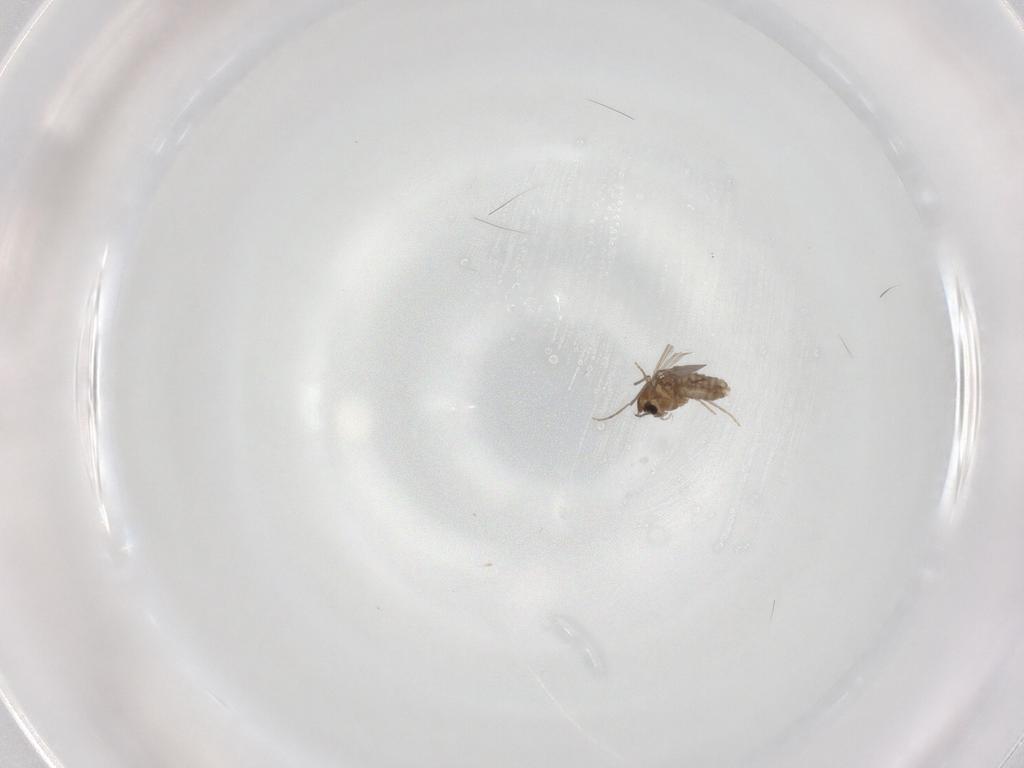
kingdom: Animalia
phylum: Arthropoda
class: Insecta
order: Diptera
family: Chironomidae
